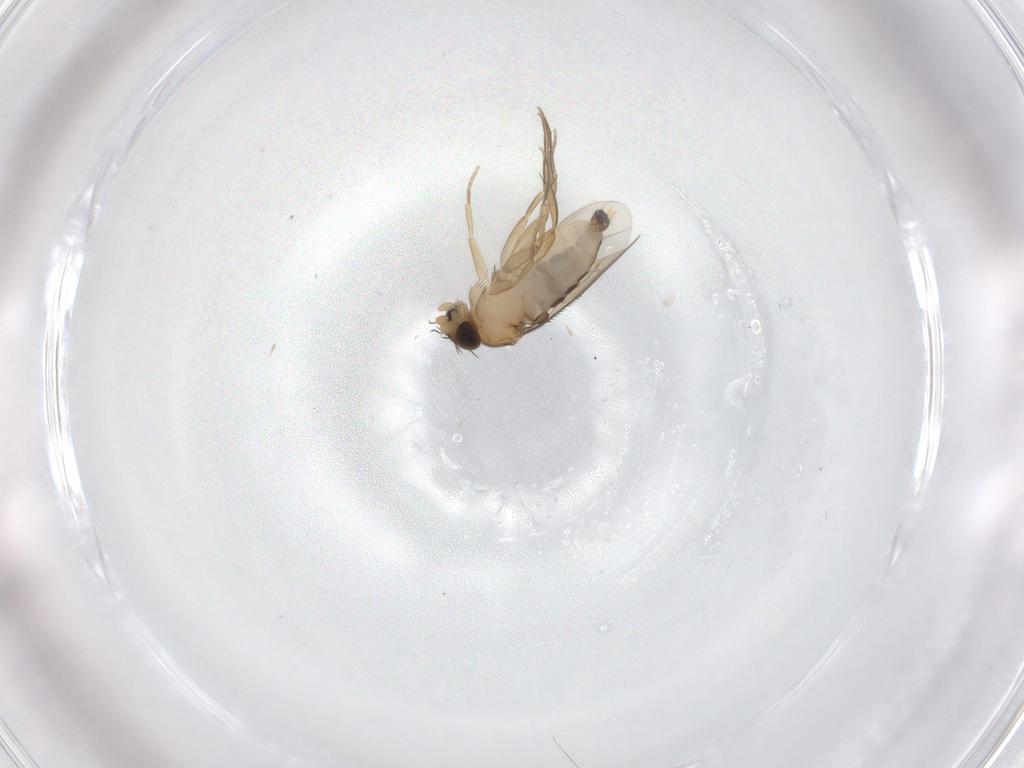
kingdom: Animalia
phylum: Arthropoda
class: Insecta
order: Diptera
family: Phoridae
